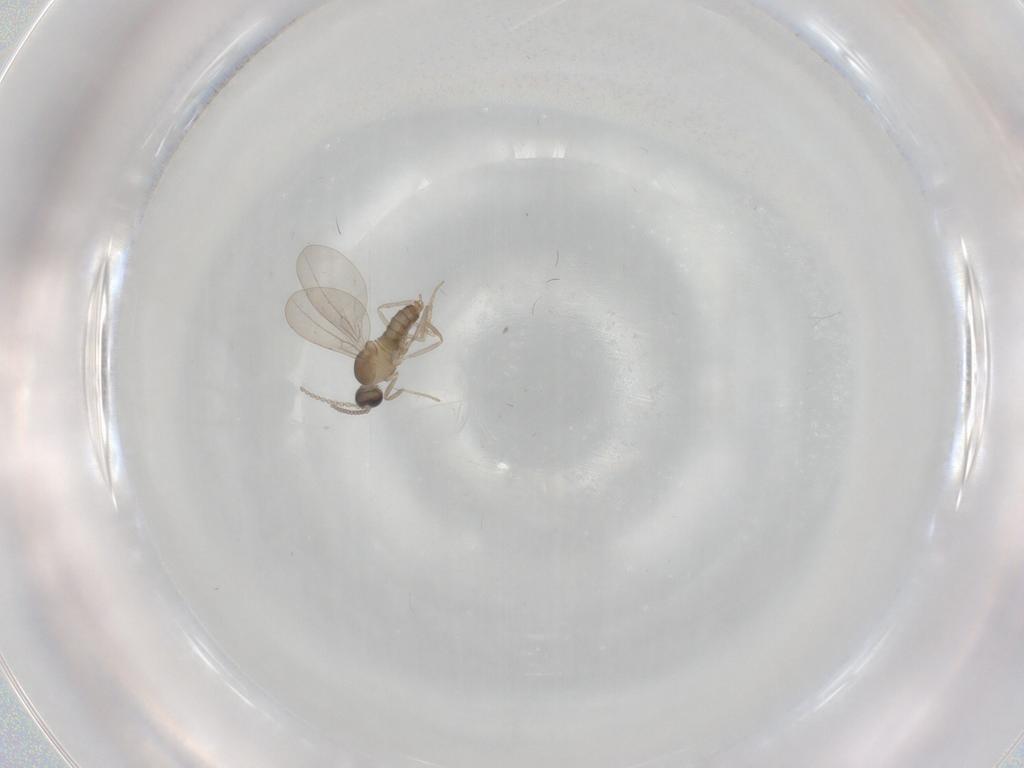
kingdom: Animalia
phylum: Arthropoda
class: Insecta
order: Diptera
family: Cecidomyiidae
